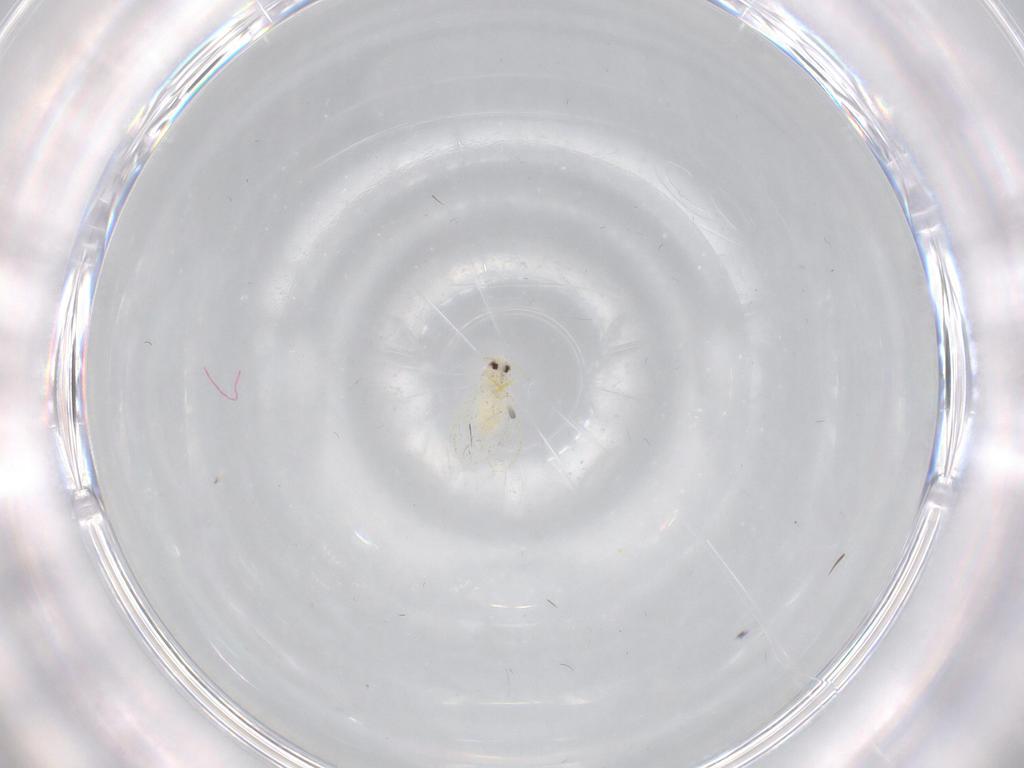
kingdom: Animalia
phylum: Arthropoda
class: Insecta
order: Hemiptera
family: Aleyrodidae
